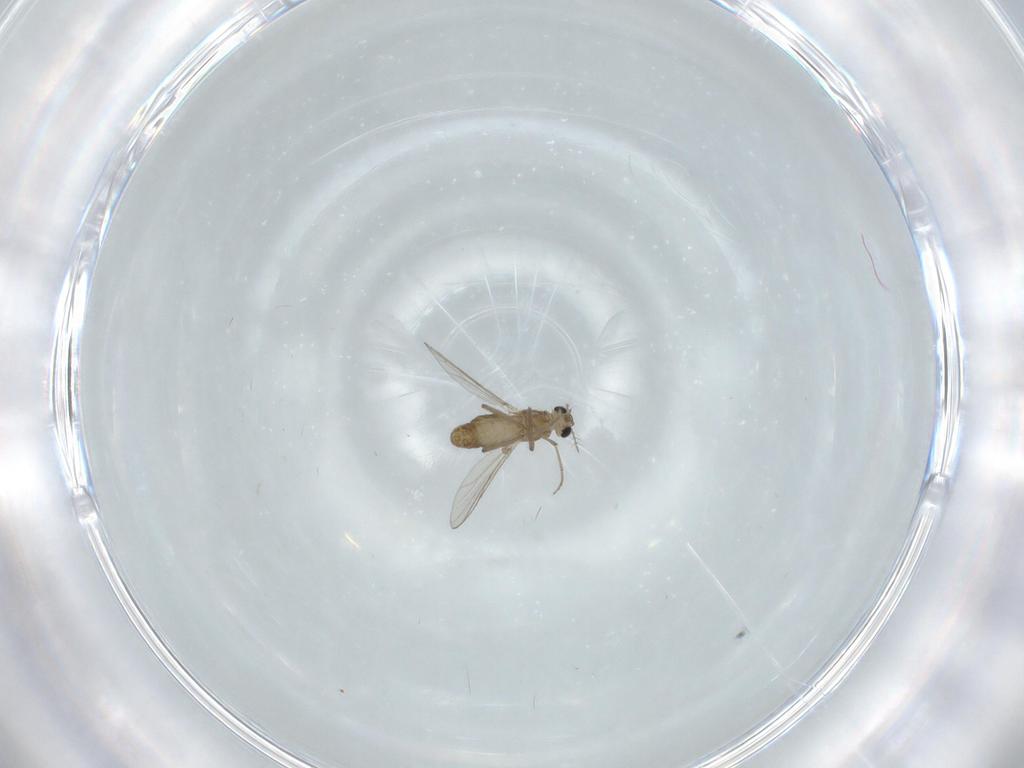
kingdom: Animalia
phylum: Arthropoda
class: Insecta
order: Diptera
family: Chironomidae
